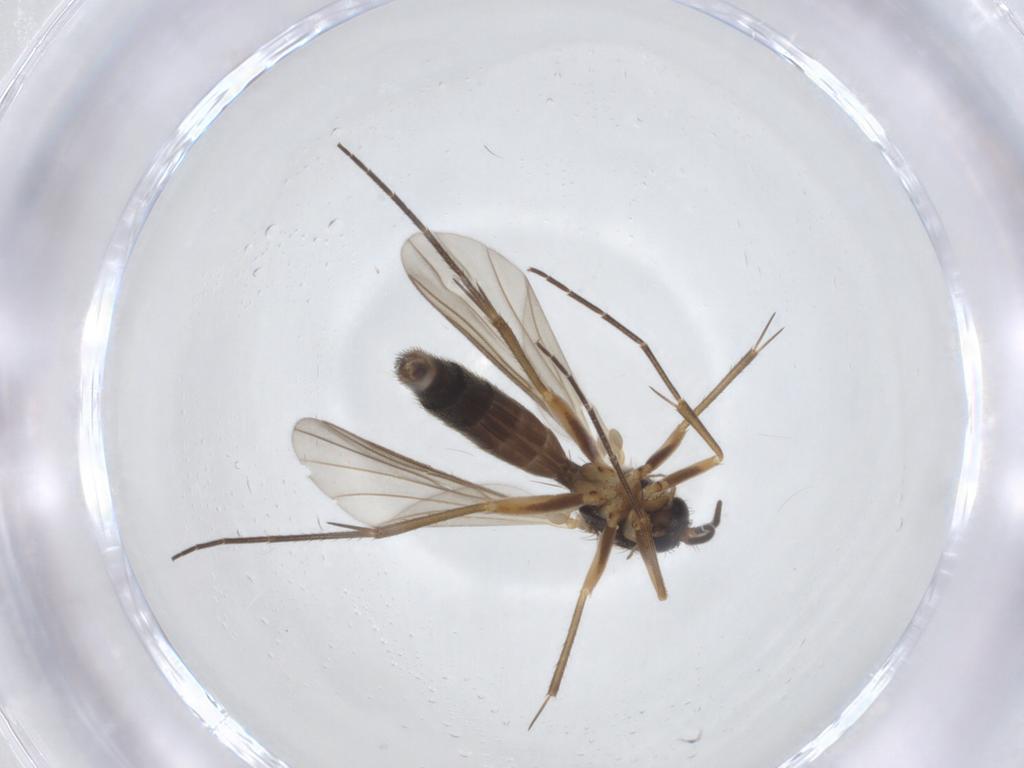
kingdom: Animalia
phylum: Arthropoda
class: Insecta
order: Diptera
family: Mycetophilidae
